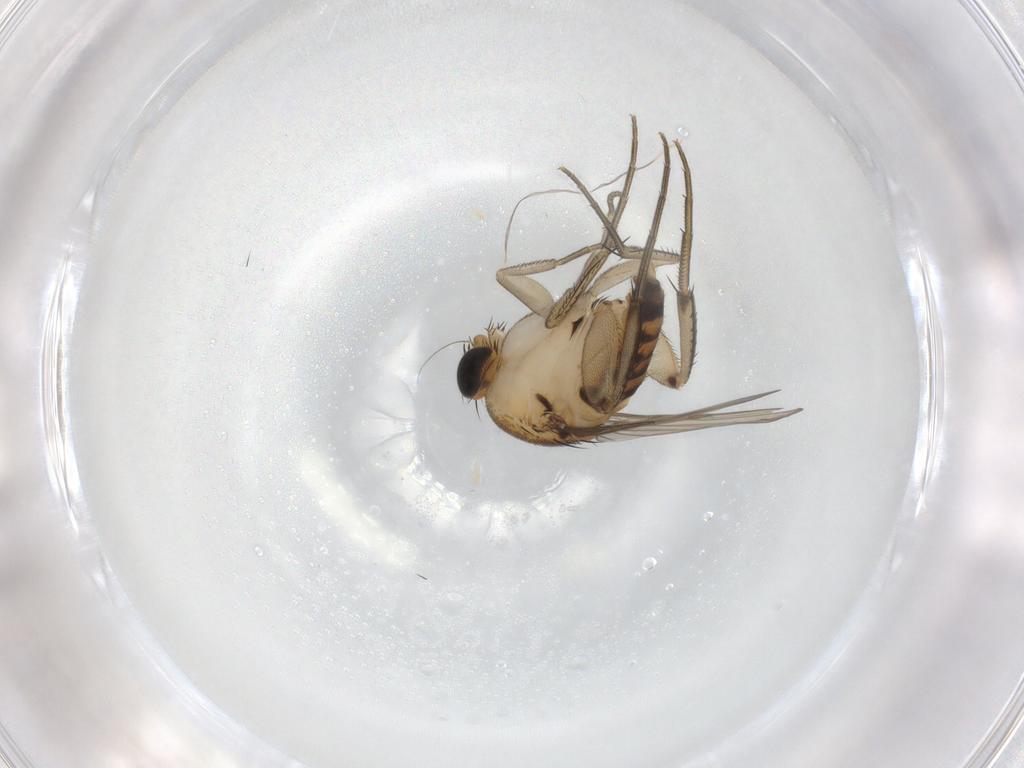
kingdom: Animalia
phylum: Arthropoda
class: Insecta
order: Diptera
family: Phoridae
